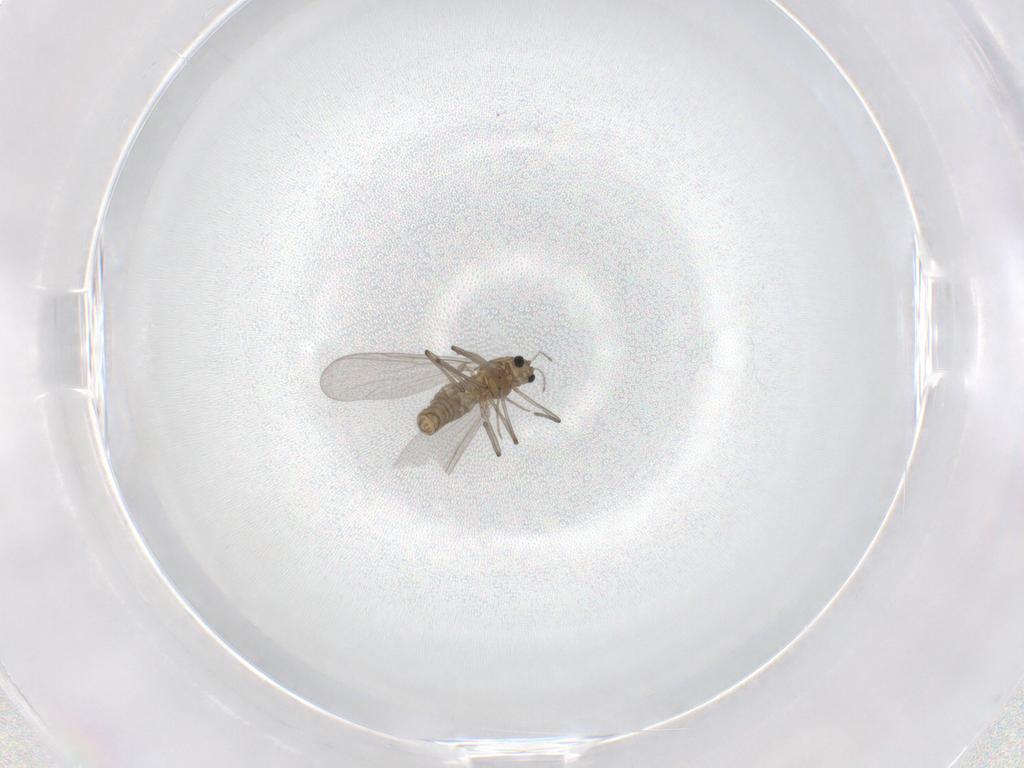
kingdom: Animalia
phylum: Arthropoda
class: Insecta
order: Diptera
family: Chironomidae
